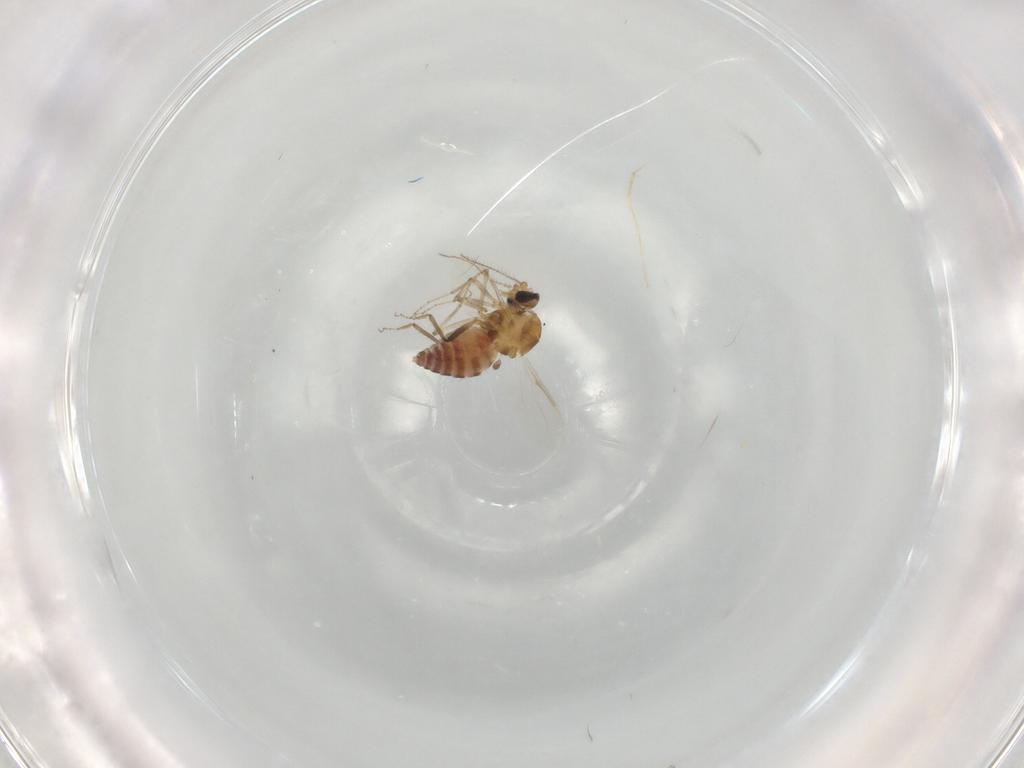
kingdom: Animalia
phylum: Arthropoda
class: Insecta
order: Diptera
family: Ceratopogonidae
